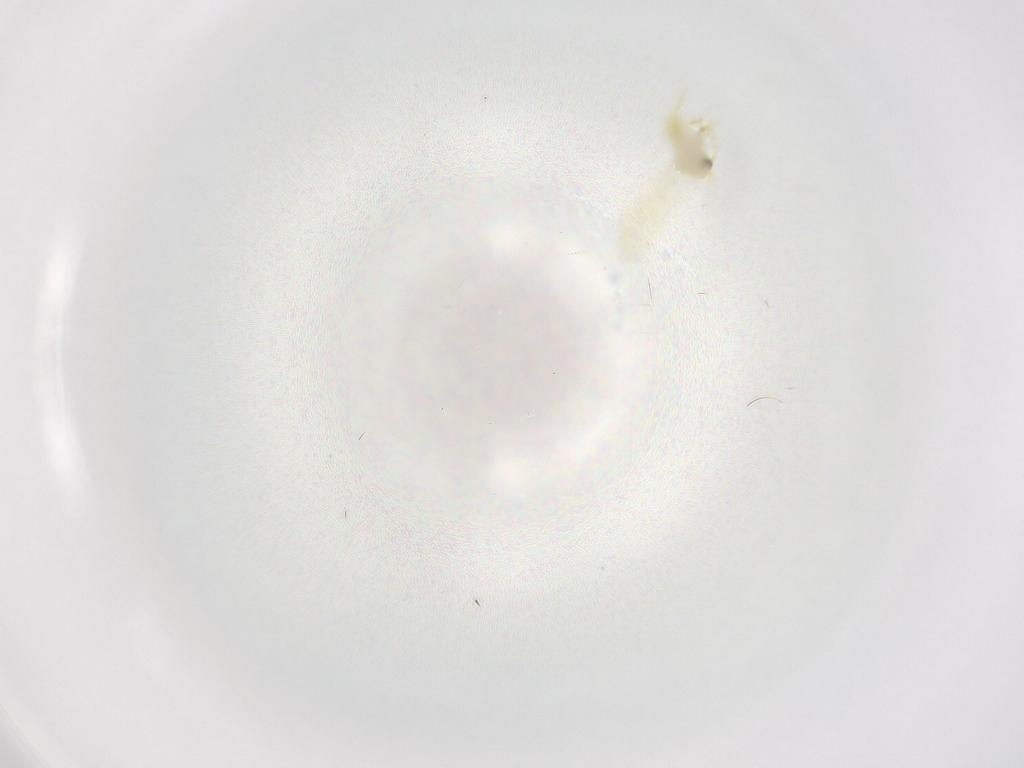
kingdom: Animalia
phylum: Arthropoda
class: Insecta
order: Hemiptera
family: Aleyrodidae
